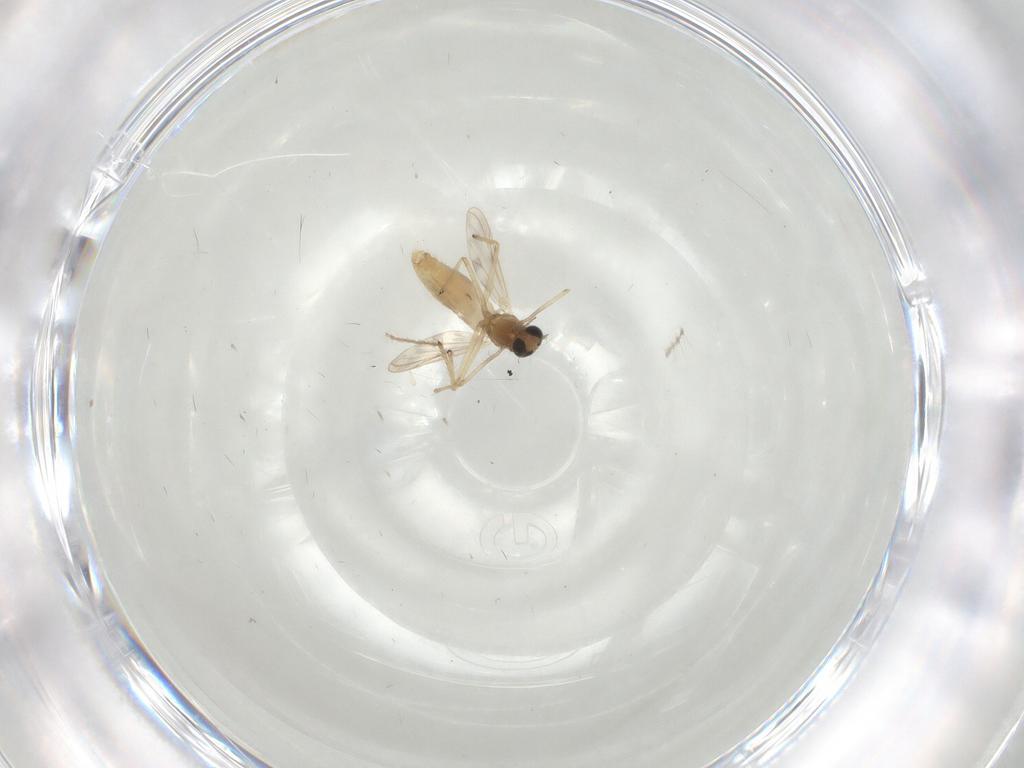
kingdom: Animalia
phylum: Arthropoda
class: Insecta
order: Diptera
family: Chironomidae
